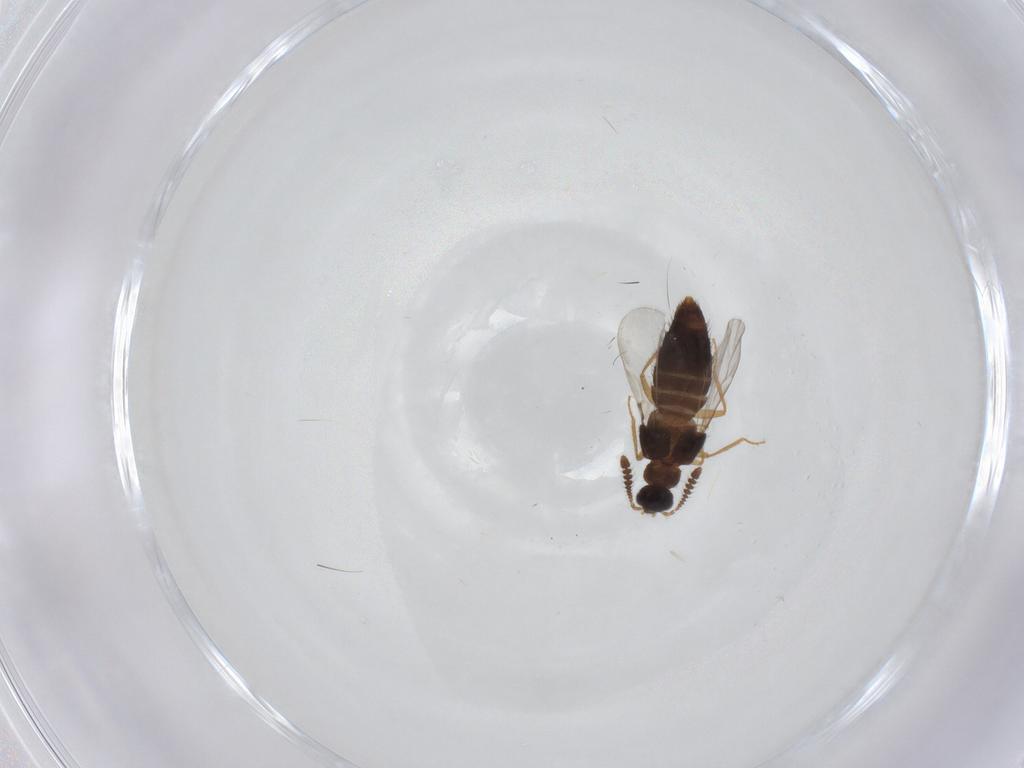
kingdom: Animalia
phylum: Arthropoda
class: Insecta
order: Coleoptera
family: Staphylinidae
